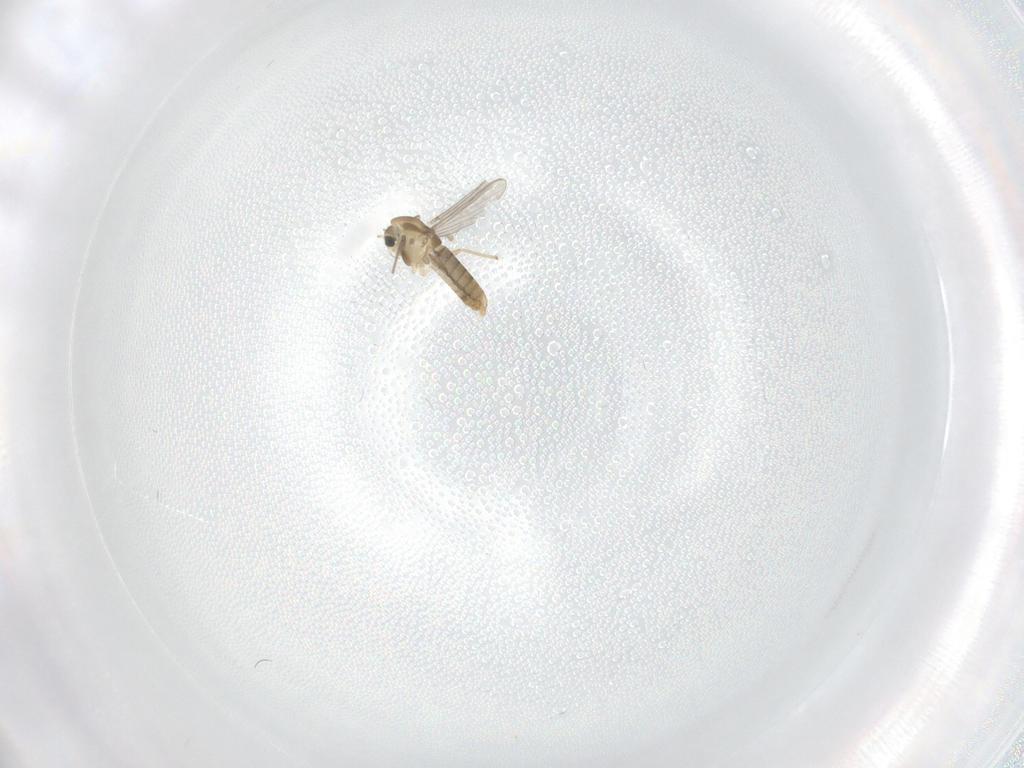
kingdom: Animalia
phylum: Arthropoda
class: Insecta
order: Diptera
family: Chironomidae
